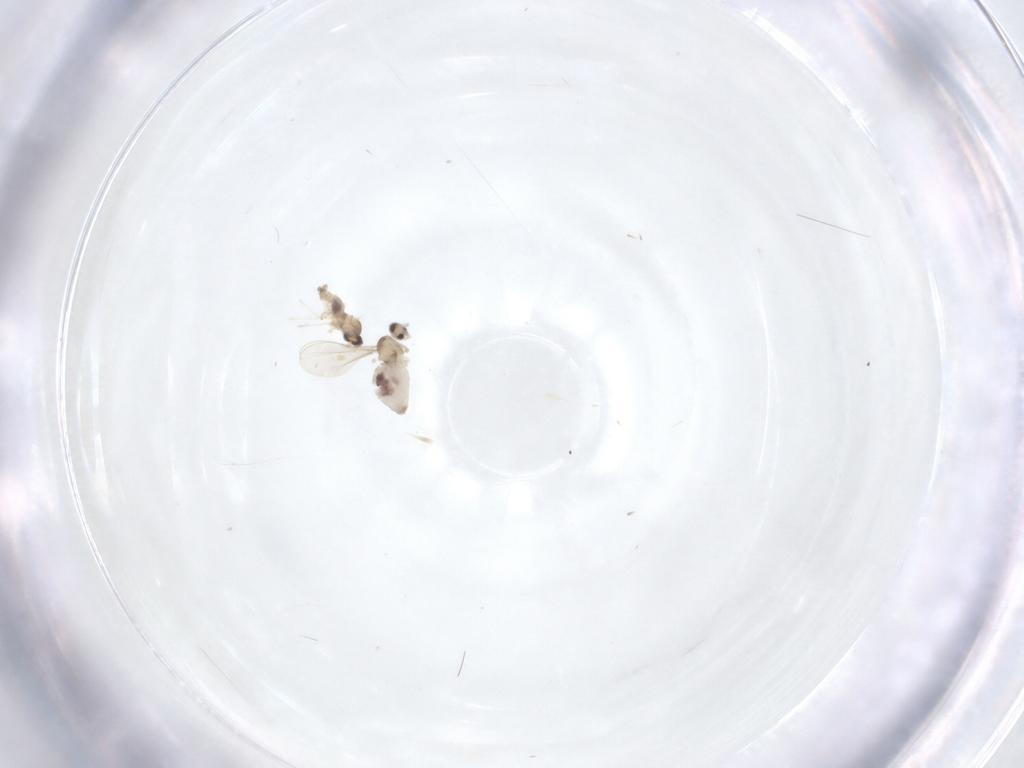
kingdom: Animalia
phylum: Arthropoda
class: Insecta
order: Diptera
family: Cecidomyiidae
